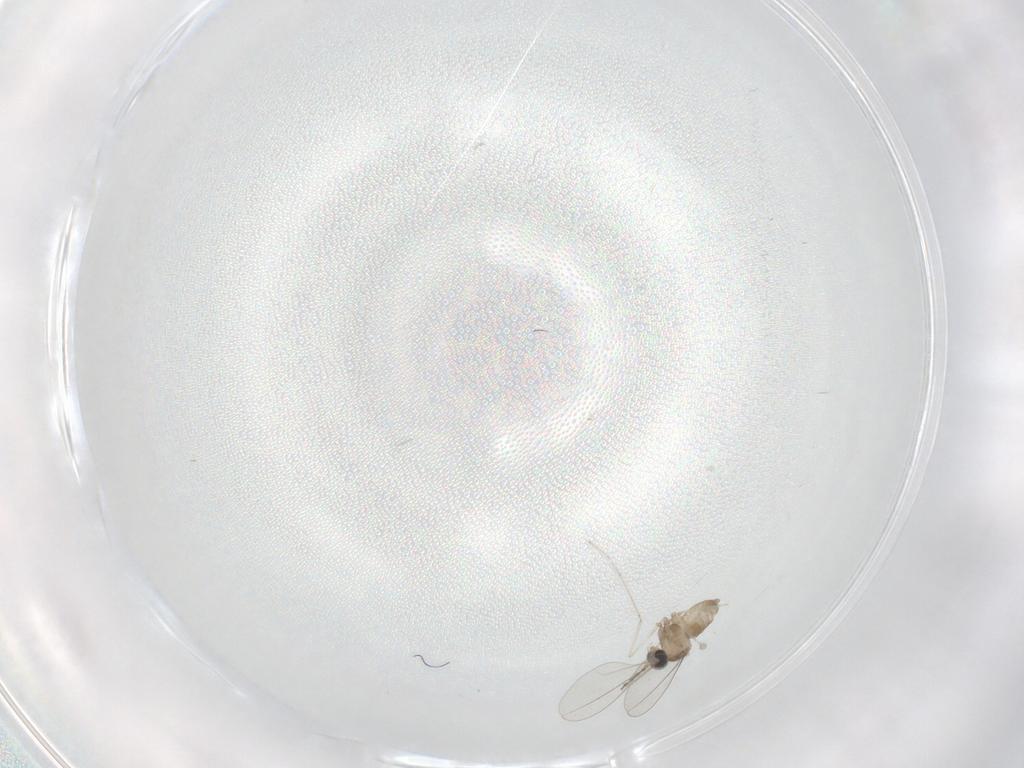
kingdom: Animalia
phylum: Arthropoda
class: Insecta
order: Diptera
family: Cecidomyiidae
